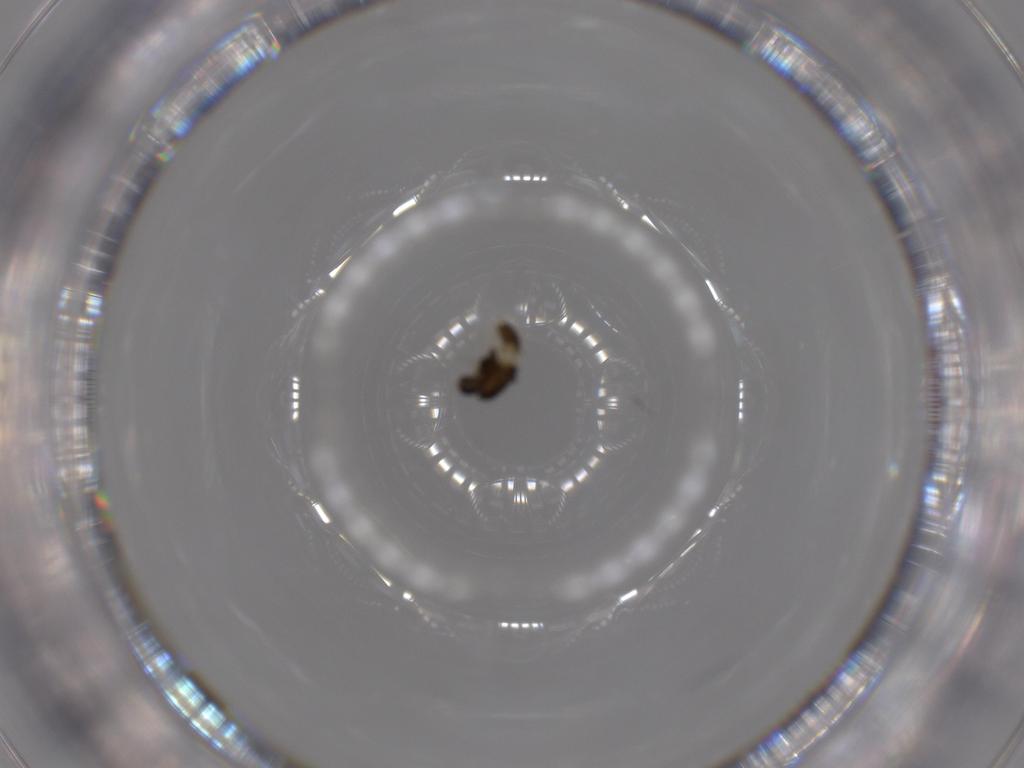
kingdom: Animalia
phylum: Arthropoda
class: Insecta
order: Diptera
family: Chironomidae
